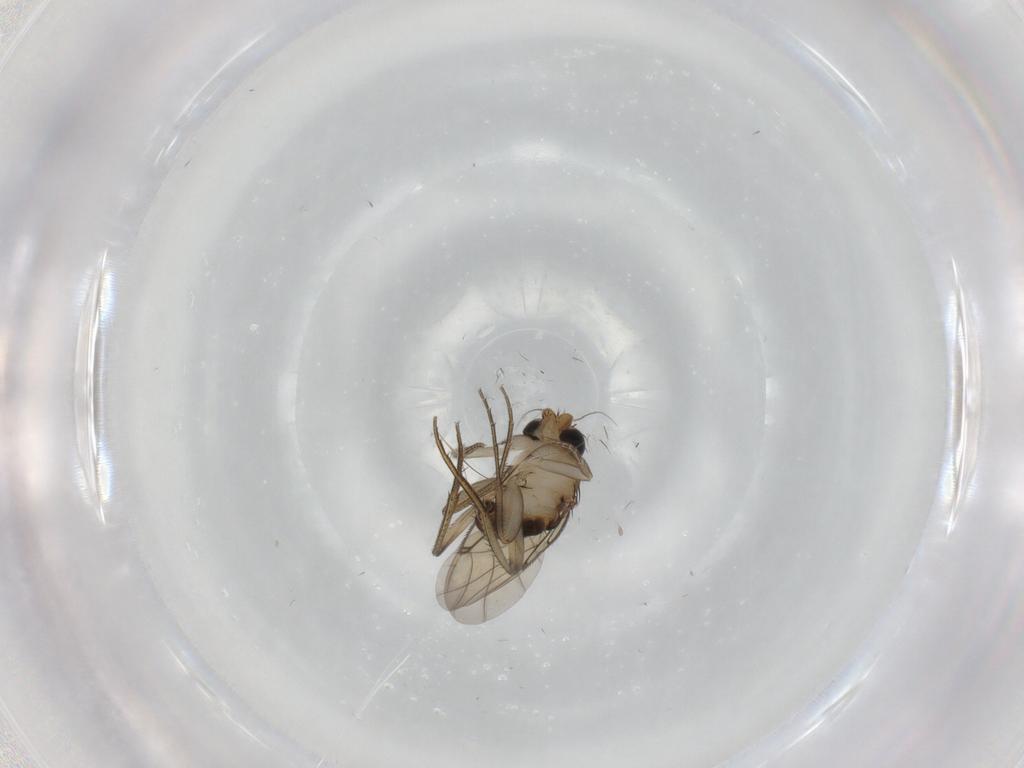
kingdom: Animalia
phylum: Arthropoda
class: Insecta
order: Diptera
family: Phoridae
